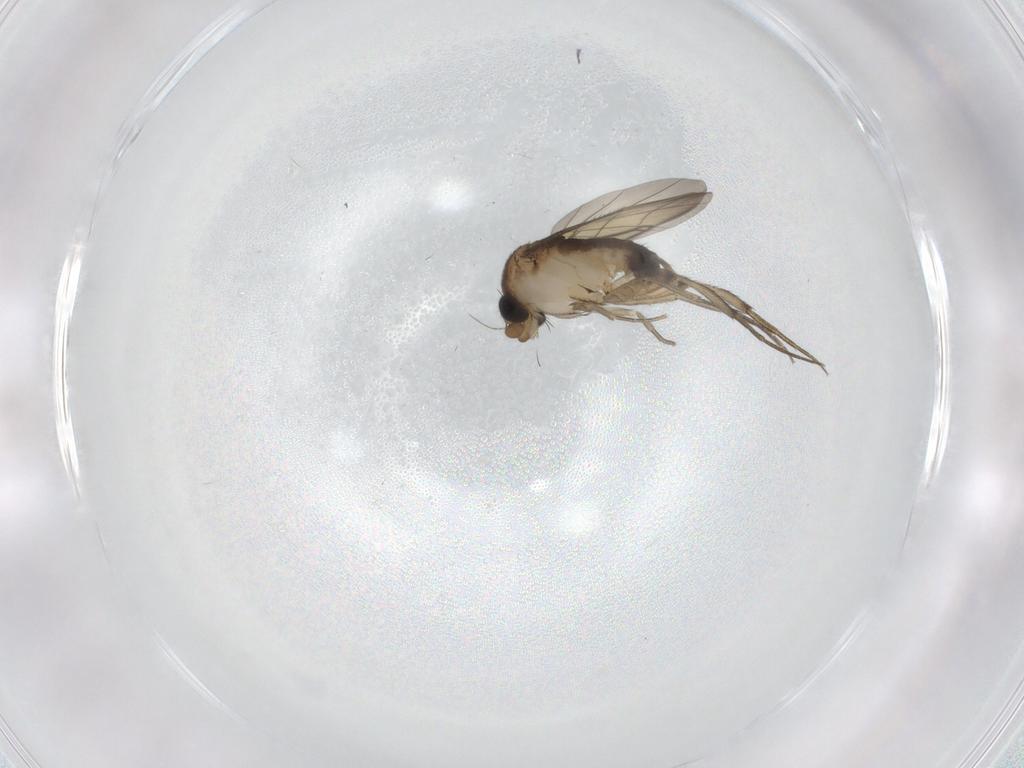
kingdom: Animalia
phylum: Arthropoda
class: Insecta
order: Diptera
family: Phoridae
